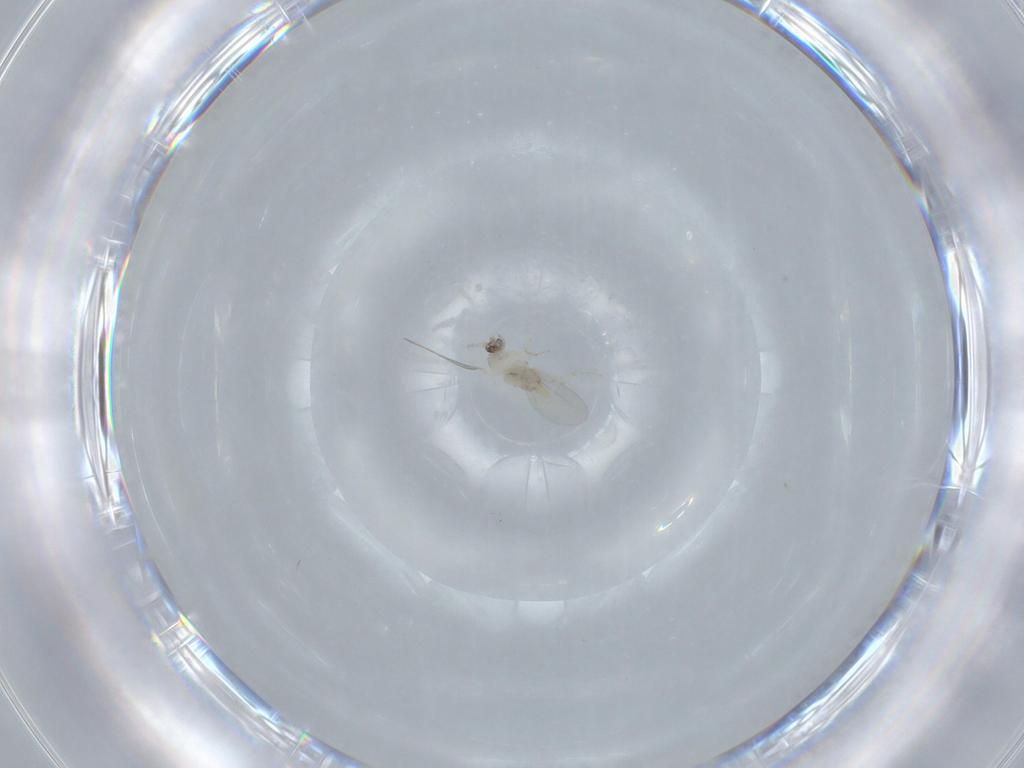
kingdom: Animalia
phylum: Arthropoda
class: Insecta
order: Diptera
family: Cecidomyiidae
